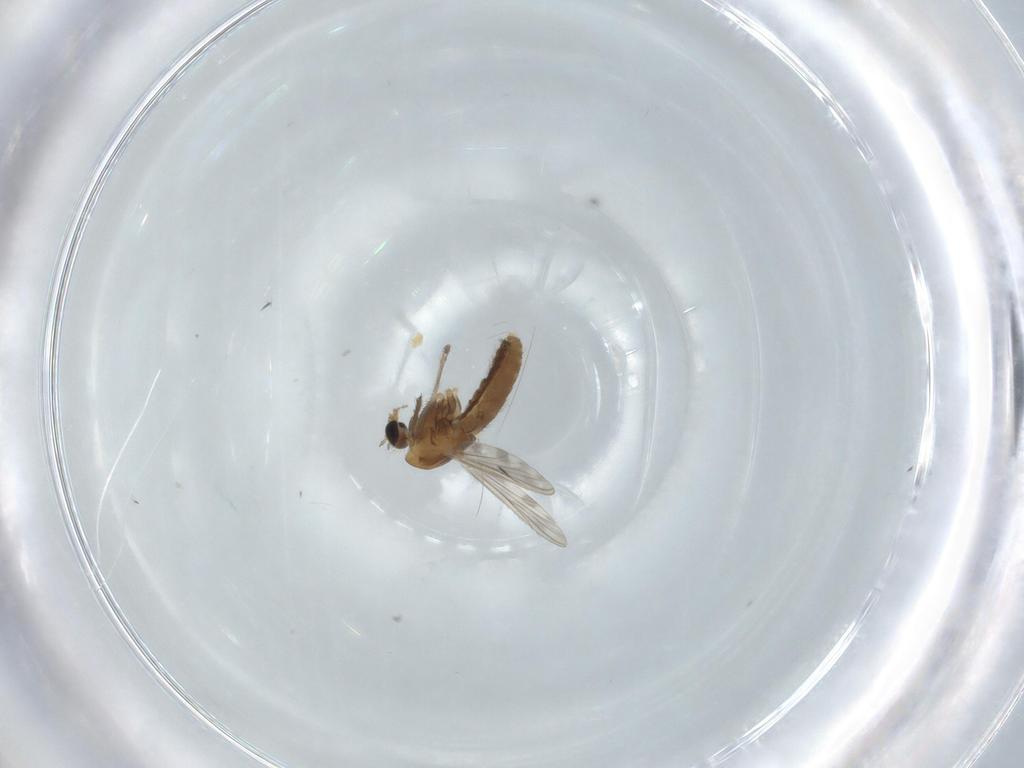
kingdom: Animalia
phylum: Arthropoda
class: Insecta
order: Diptera
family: Chironomidae
